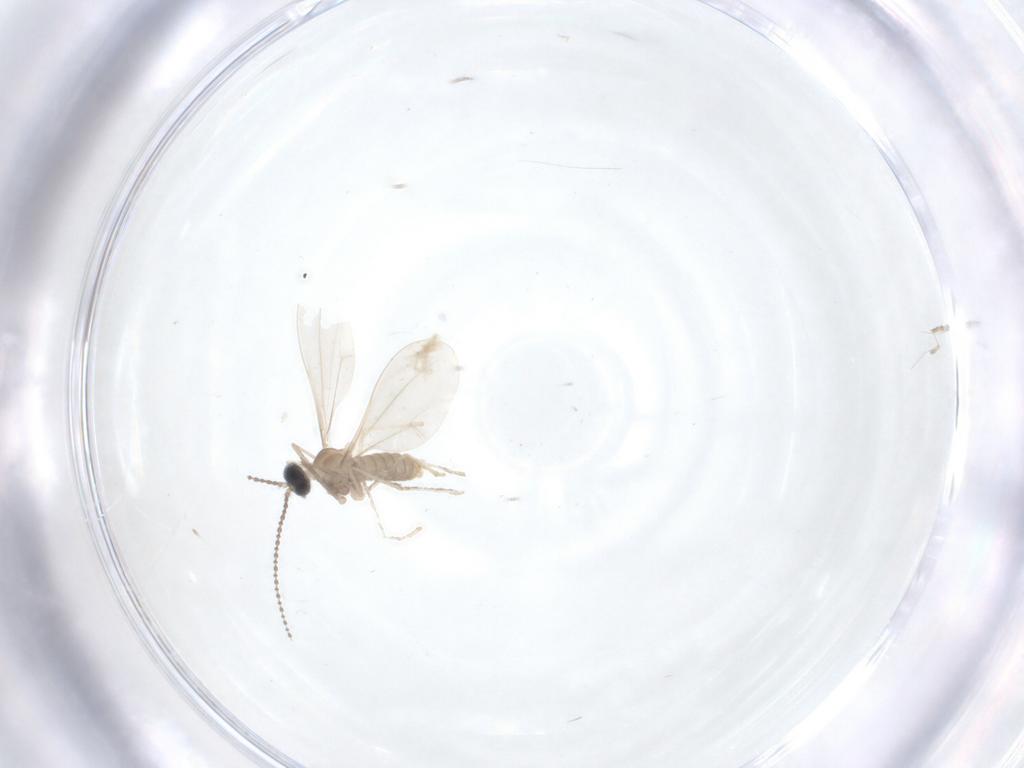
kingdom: Animalia
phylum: Arthropoda
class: Insecta
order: Diptera
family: Cecidomyiidae
